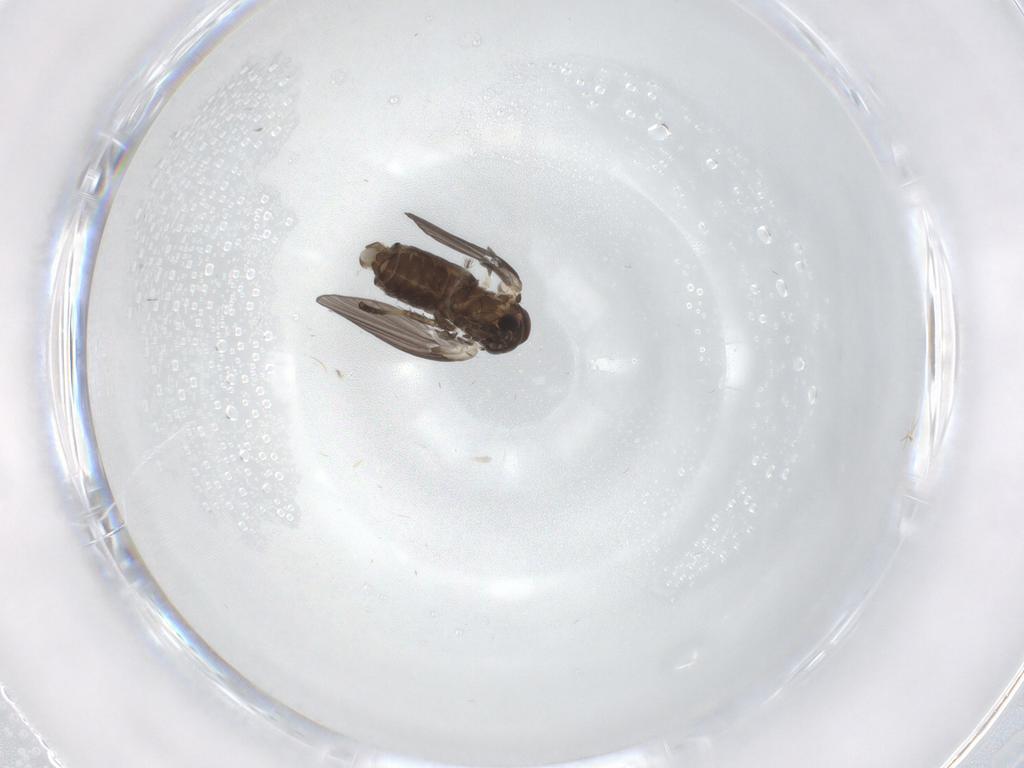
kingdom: Animalia
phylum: Arthropoda
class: Insecta
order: Diptera
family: Psychodidae
